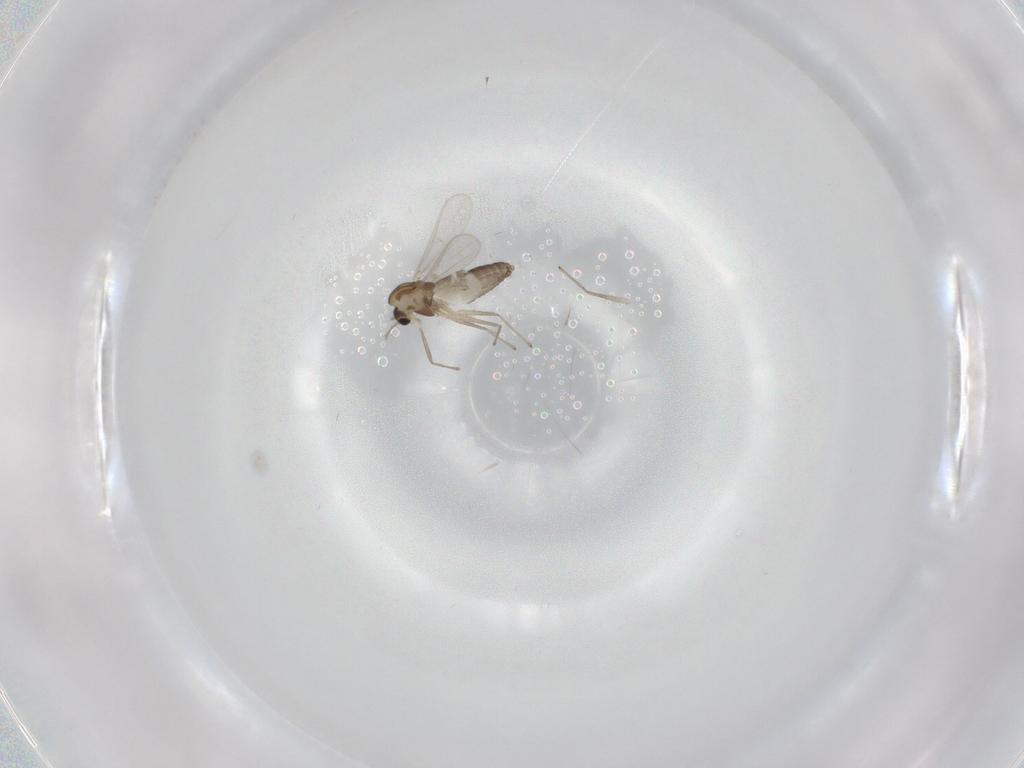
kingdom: Animalia
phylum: Arthropoda
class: Insecta
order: Diptera
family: Chironomidae
